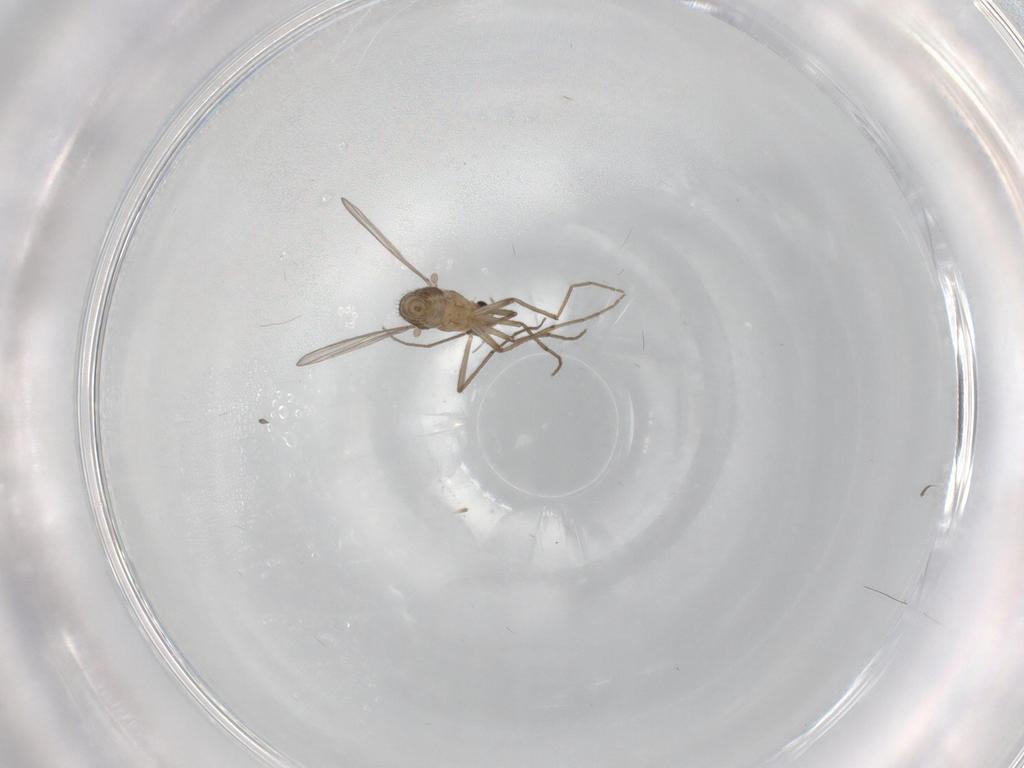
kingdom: Animalia
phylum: Arthropoda
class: Insecta
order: Diptera
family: Chironomidae
